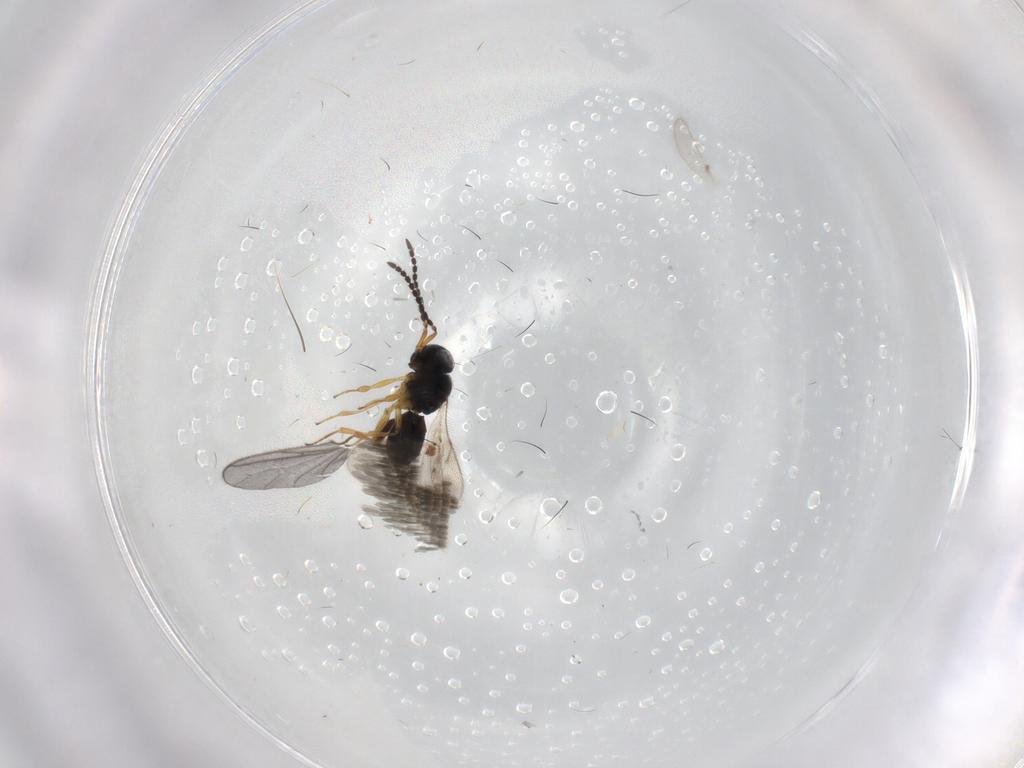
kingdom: Animalia
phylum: Arthropoda
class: Insecta
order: Hymenoptera
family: Scelionidae
